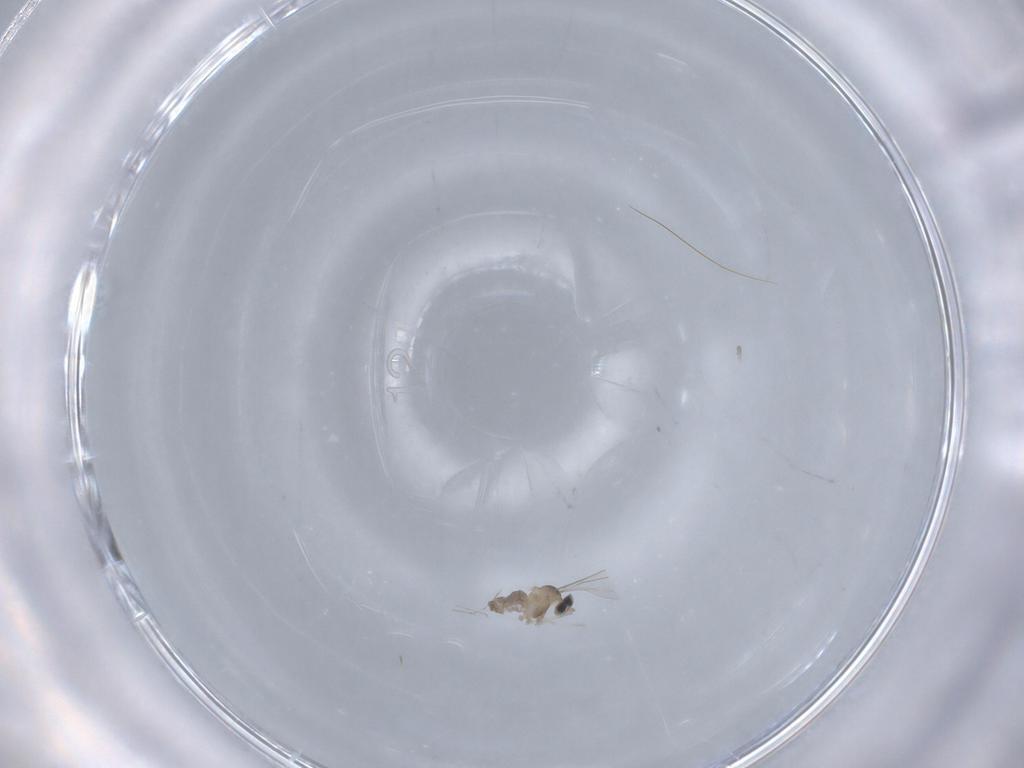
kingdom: Animalia
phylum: Arthropoda
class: Insecta
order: Diptera
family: Cecidomyiidae
